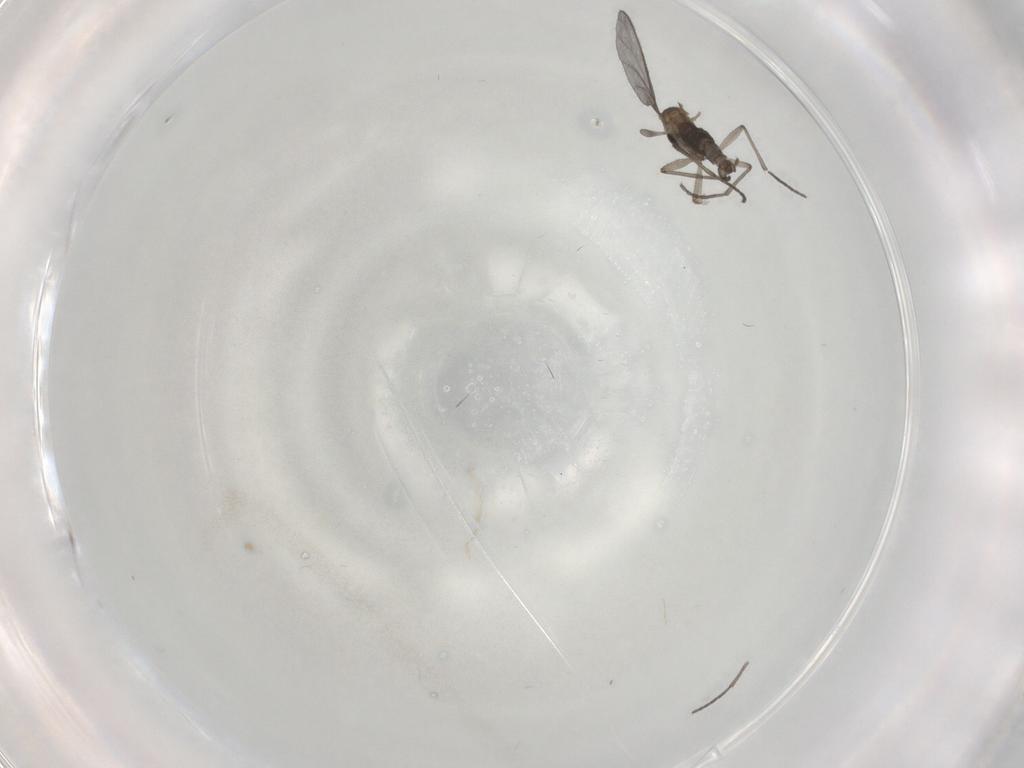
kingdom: Animalia
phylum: Arthropoda
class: Insecta
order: Diptera
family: Sciaridae
